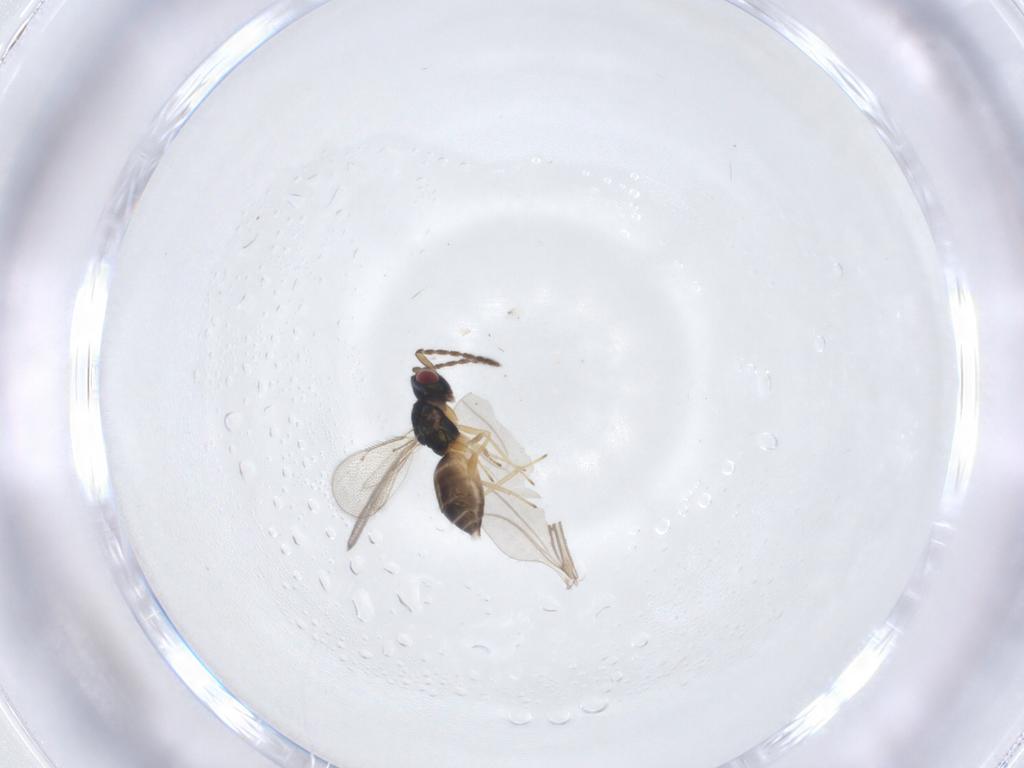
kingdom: Animalia
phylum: Arthropoda
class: Insecta
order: Hymenoptera
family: Eulophidae
